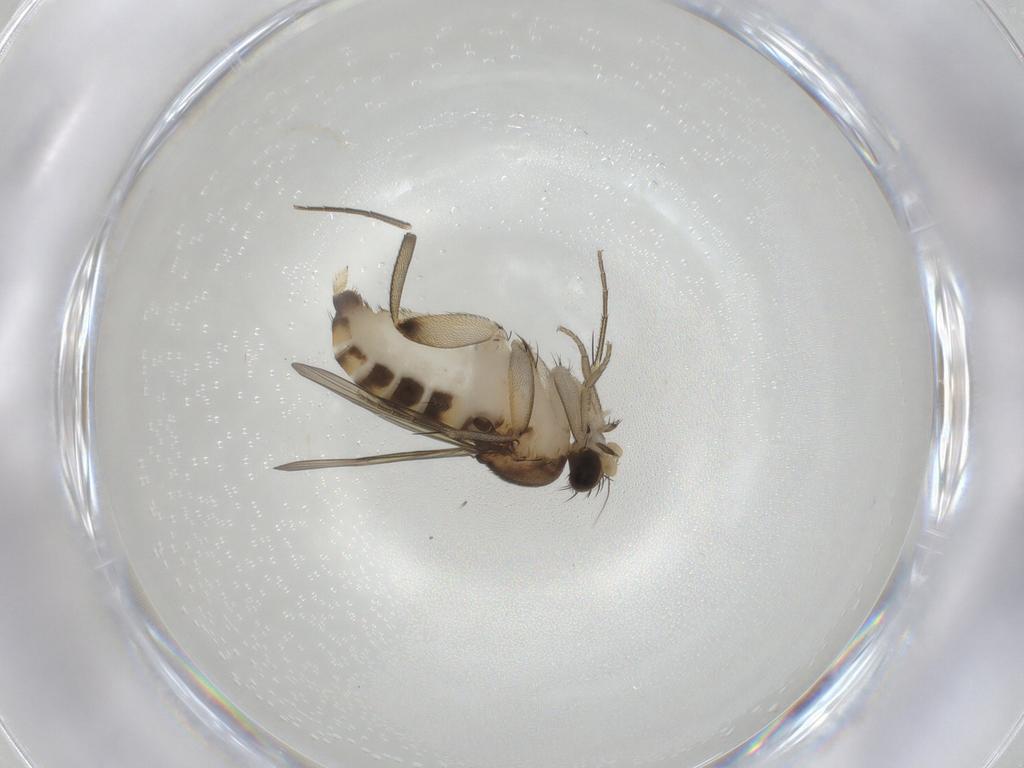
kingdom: Animalia
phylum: Arthropoda
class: Insecta
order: Diptera
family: Phoridae
